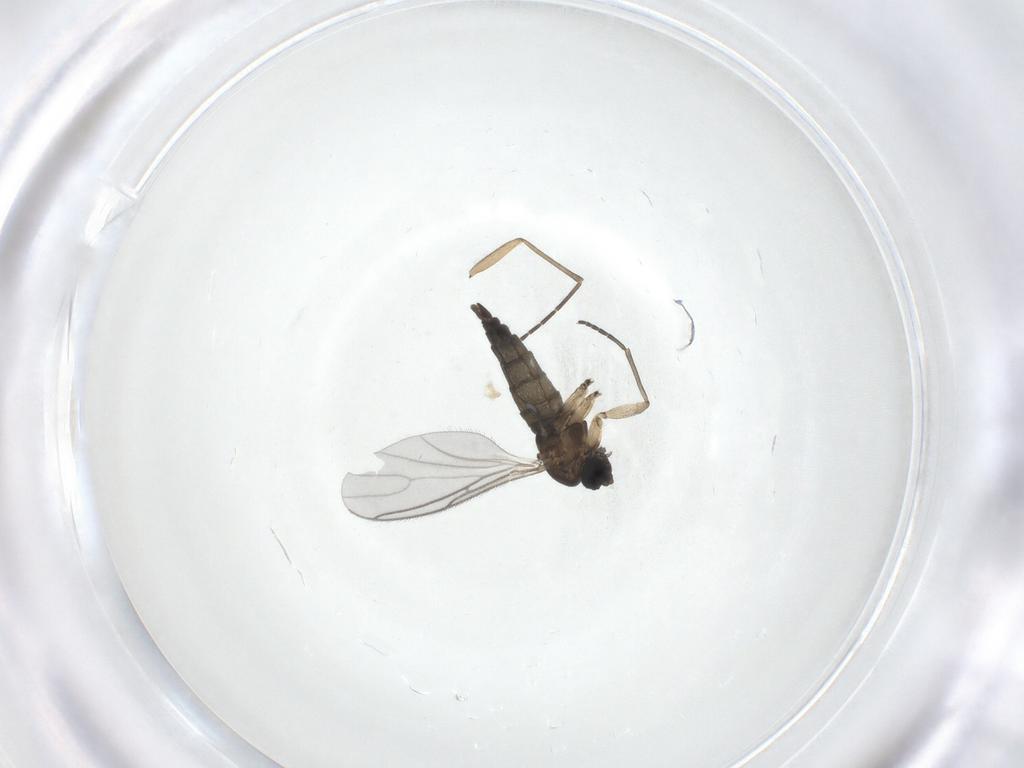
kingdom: Animalia
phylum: Arthropoda
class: Insecta
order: Diptera
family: Sciaridae
